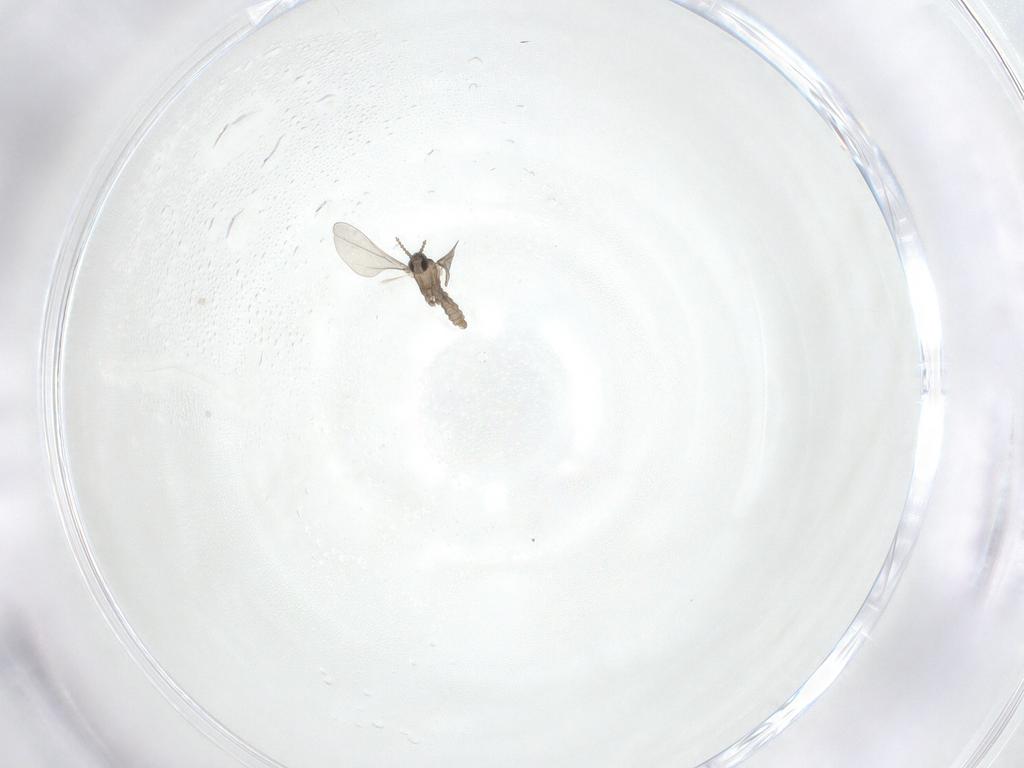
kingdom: Animalia
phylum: Arthropoda
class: Insecta
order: Diptera
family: Cecidomyiidae
